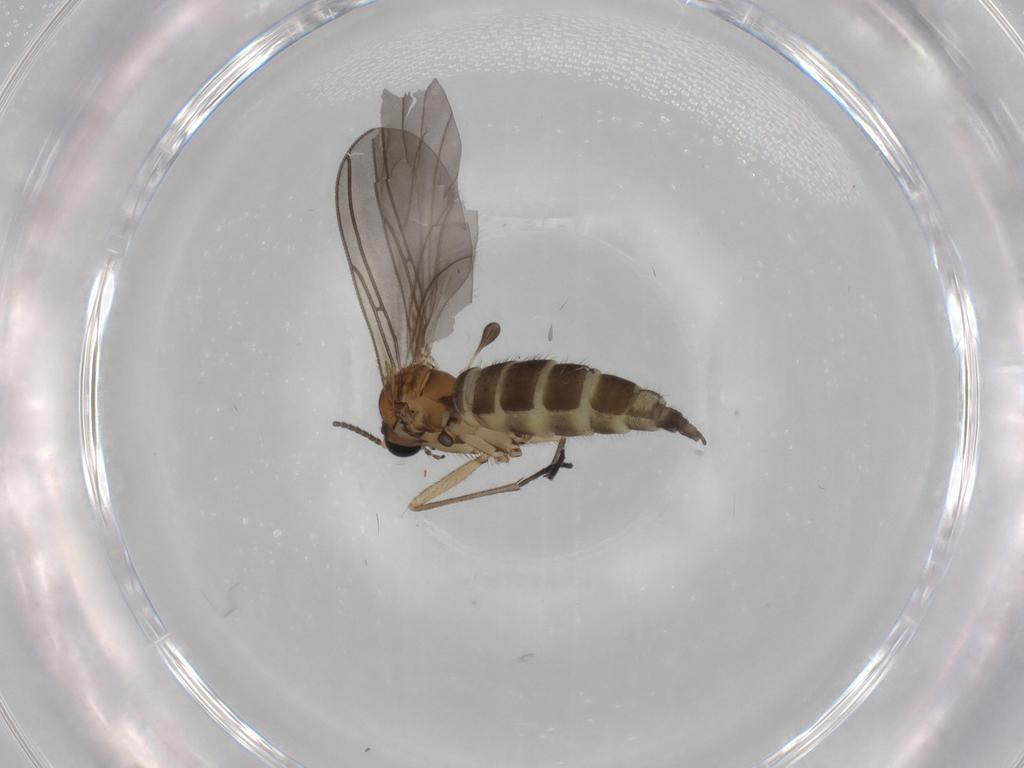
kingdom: Animalia
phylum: Arthropoda
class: Insecta
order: Diptera
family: Sciaridae
